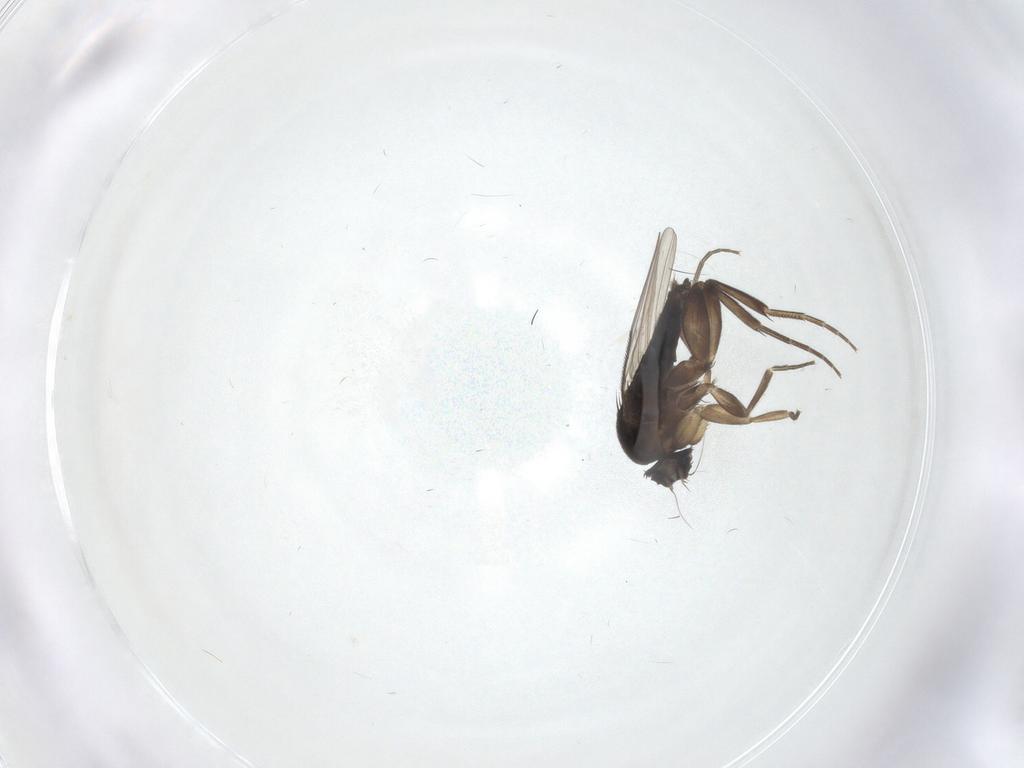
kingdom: Animalia
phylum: Arthropoda
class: Insecta
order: Diptera
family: Phoridae
